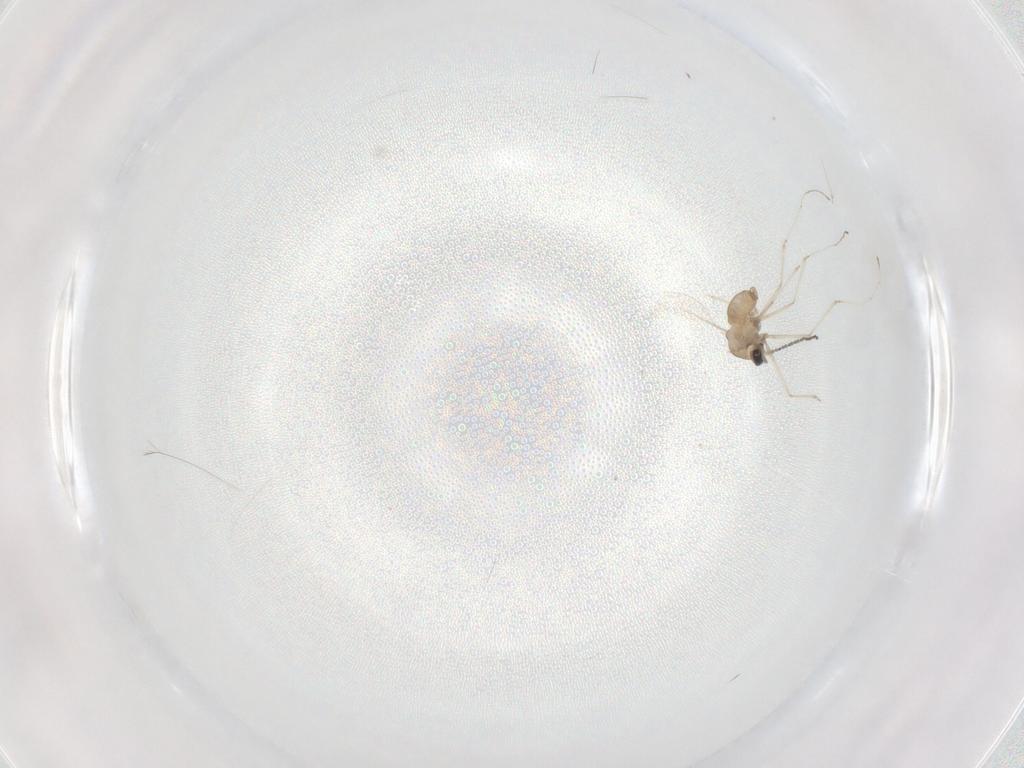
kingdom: Animalia
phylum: Arthropoda
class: Insecta
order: Diptera
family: Cecidomyiidae
